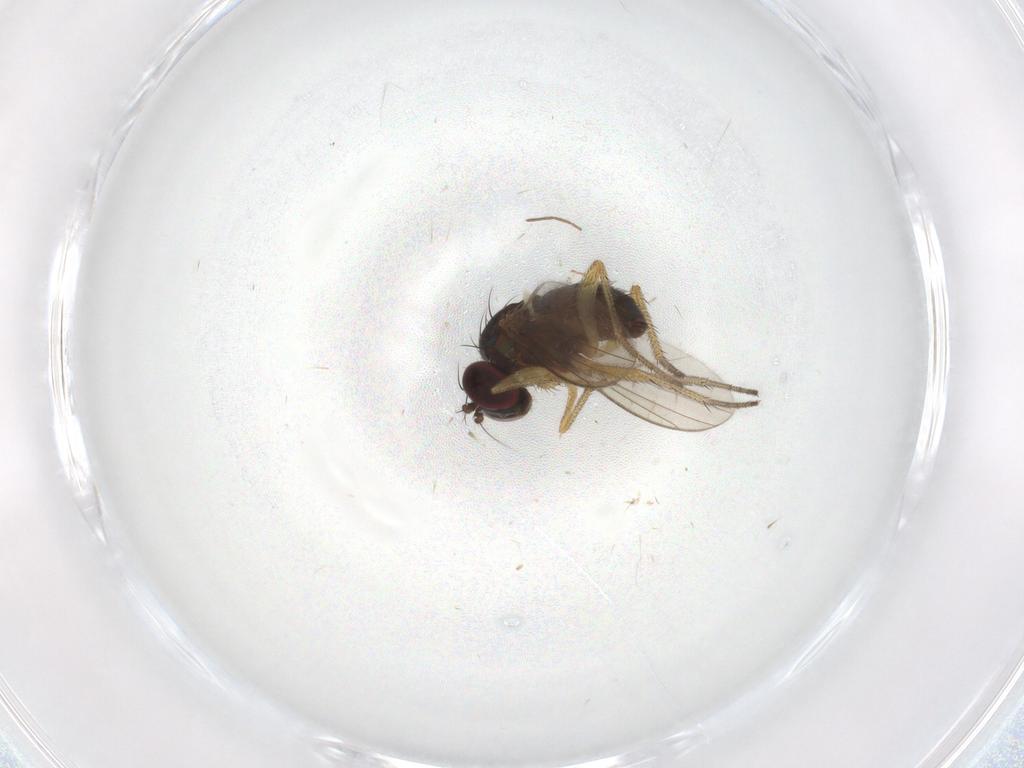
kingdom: Animalia
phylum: Arthropoda
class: Insecta
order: Diptera
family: Dolichopodidae
